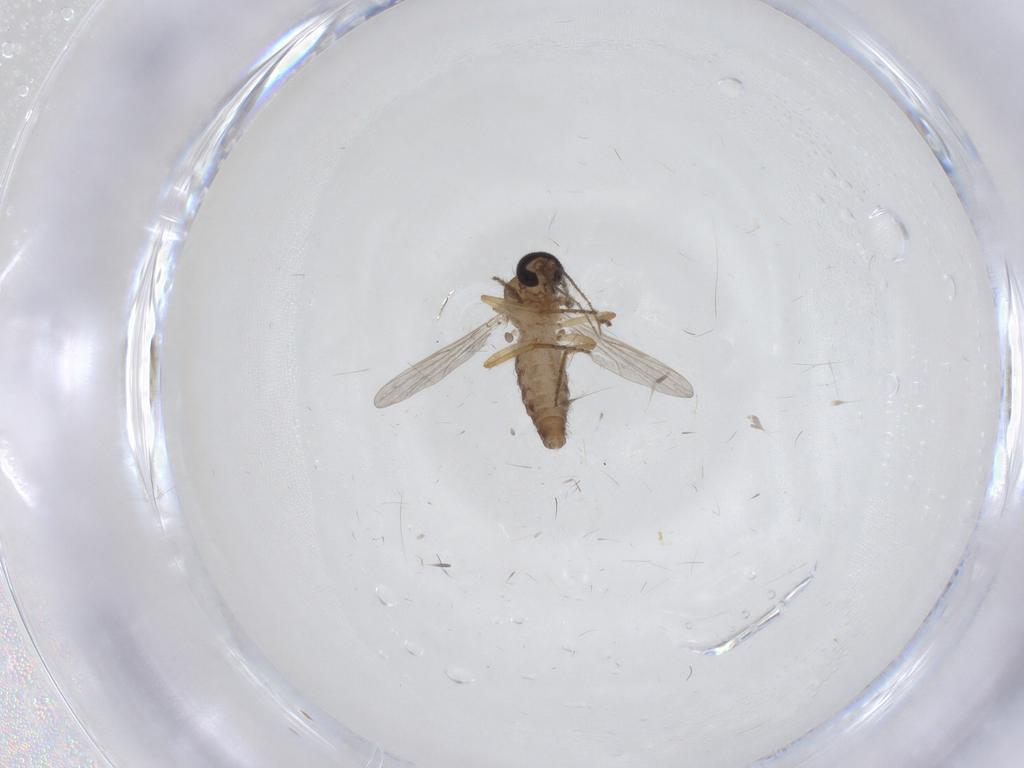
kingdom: Animalia
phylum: Arthropoda
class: Insecta
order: Diptera
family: Ceratopogonidae
